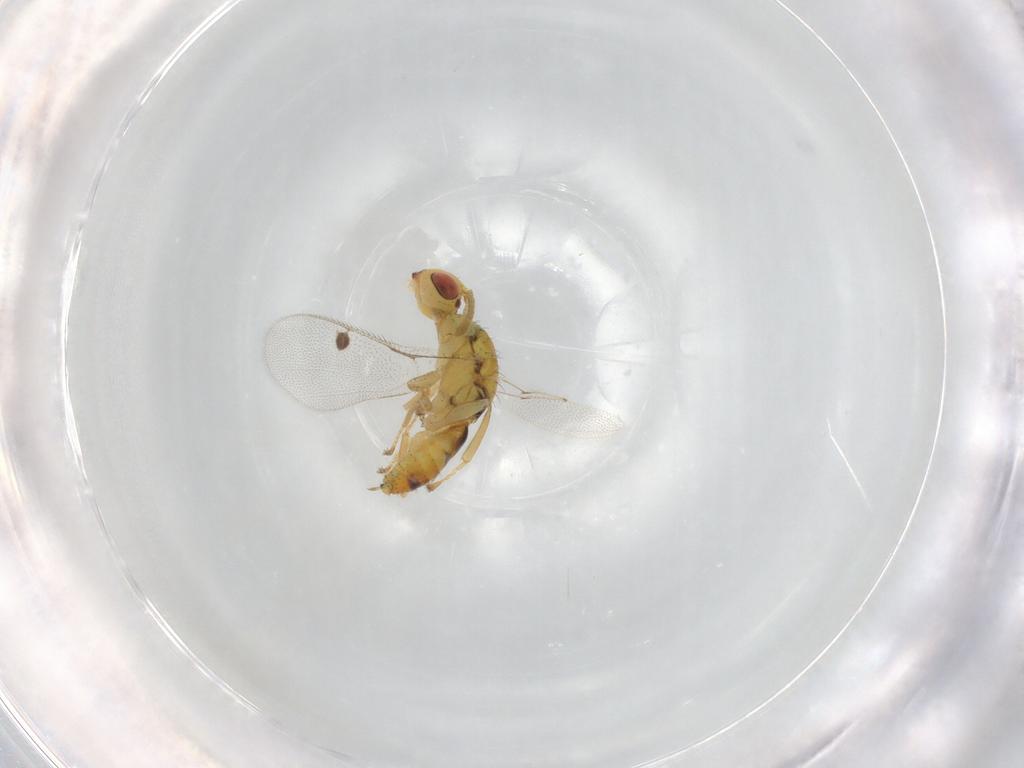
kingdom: Animalia
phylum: Arthropoda
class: Insecta
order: Hymenoptera
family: Megastigmidae
